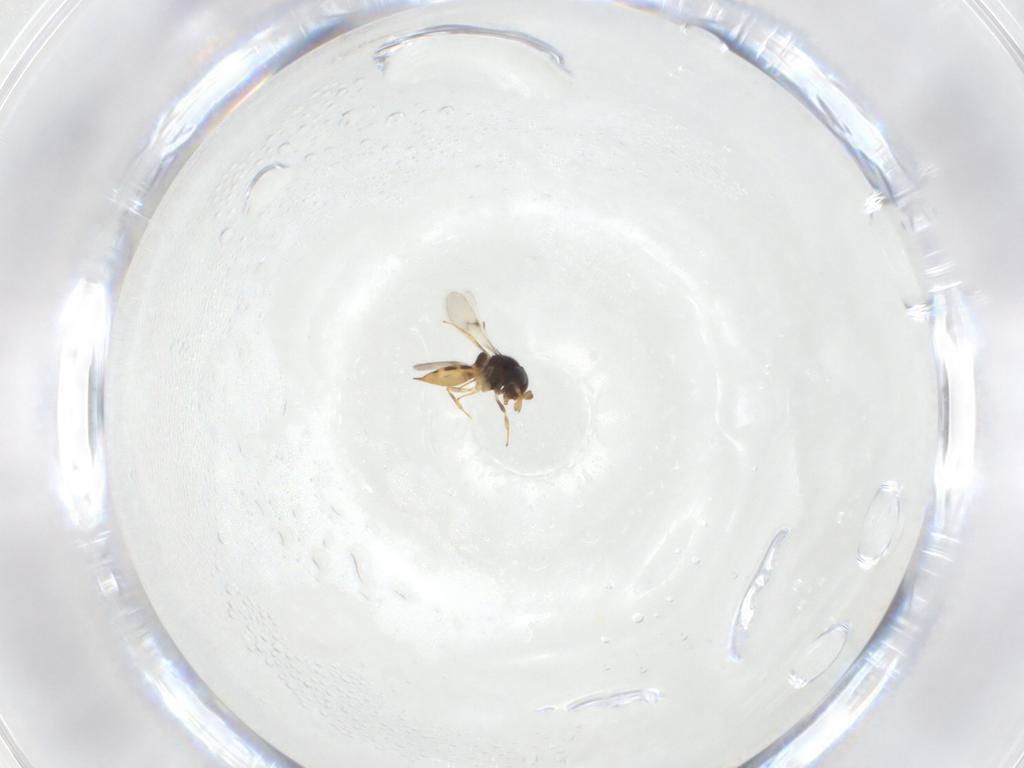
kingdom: Animalia
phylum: Arthropoda
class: Insecta
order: Hymenoptera
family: Scelionidae
